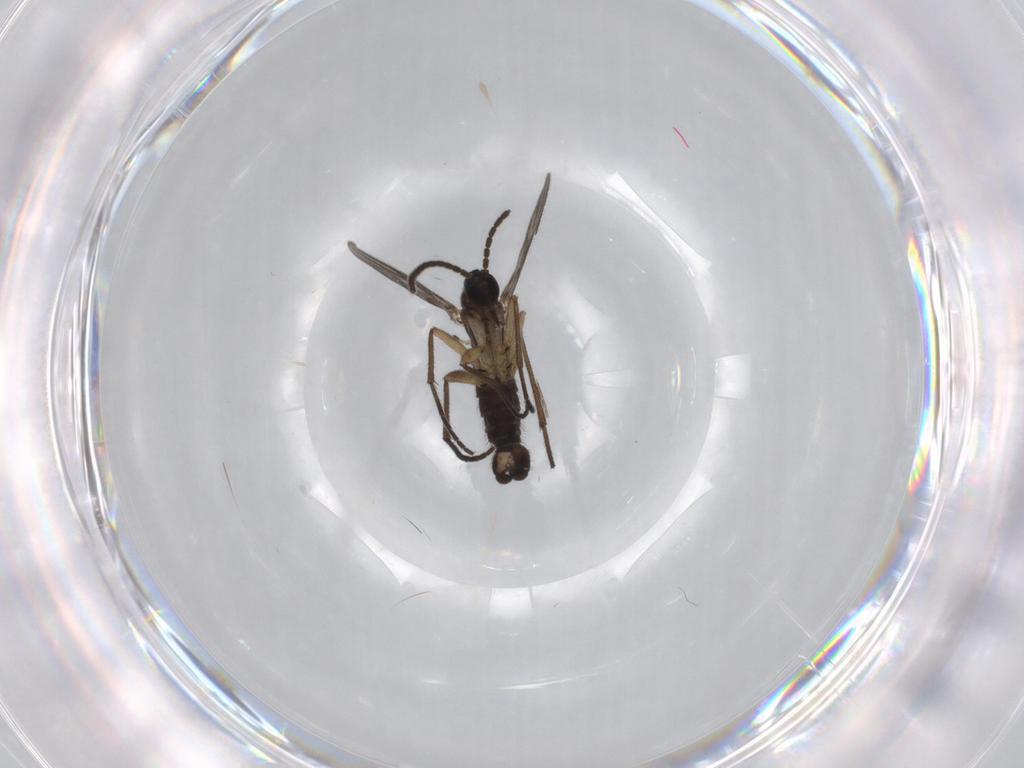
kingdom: Animalia
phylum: Arthropoda
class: Insecta
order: Diptera
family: Sciaridae
